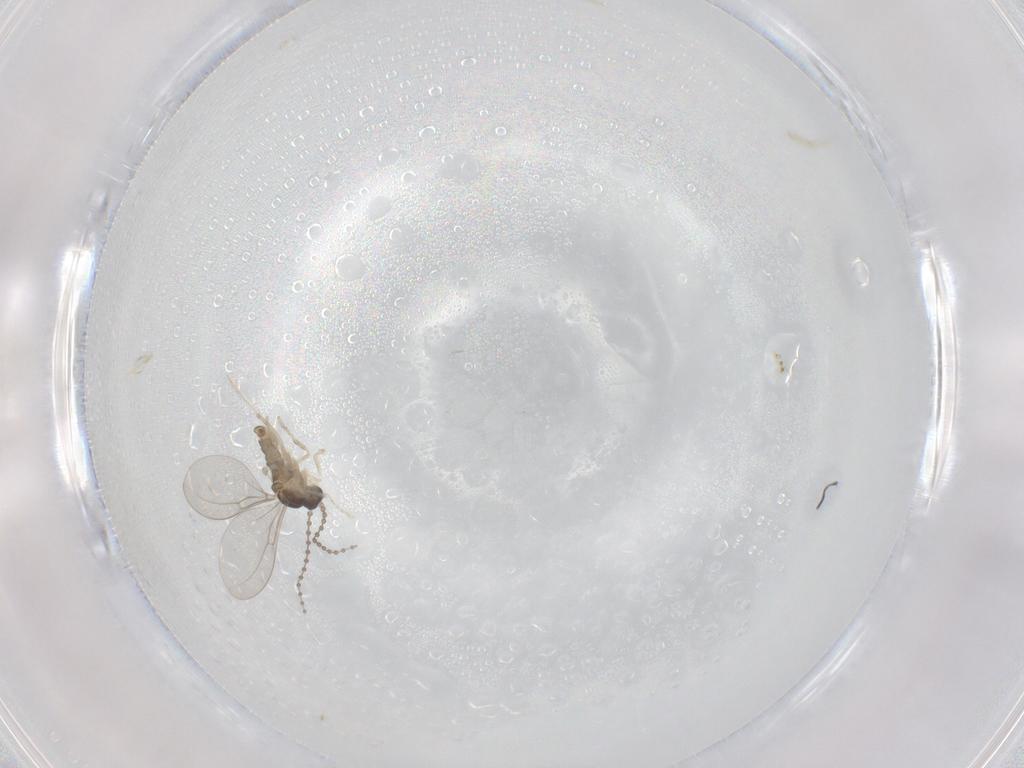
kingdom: Animalia
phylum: Arthropoda
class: Insecta
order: Diptera
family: Cecidomyiidae
